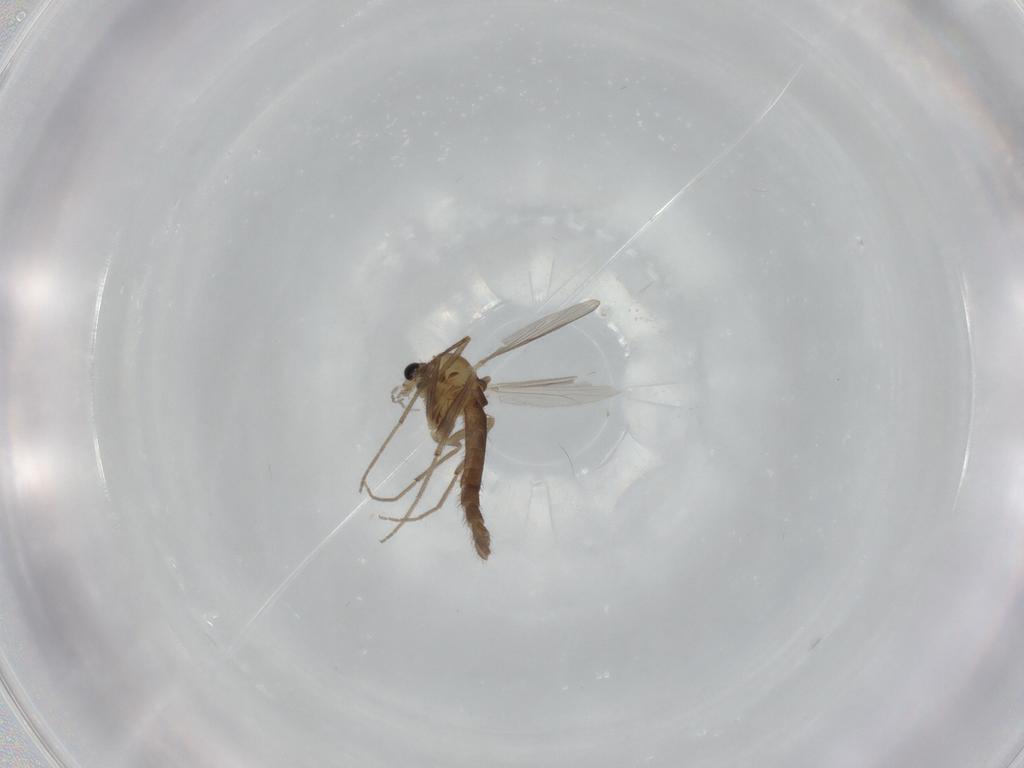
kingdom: Animalia
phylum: Arthropoda
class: Insecta
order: Diptera
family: Chironomidae
